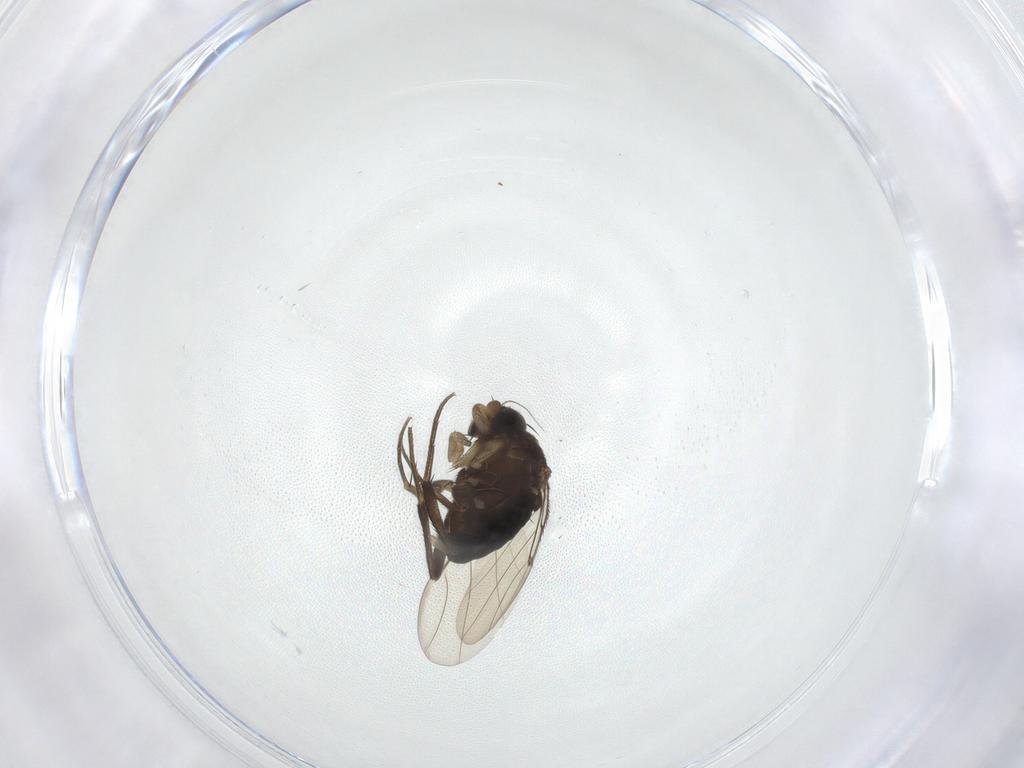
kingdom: Animalia
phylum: Arthropoda
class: Insecta
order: Diptera
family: Phoridae
